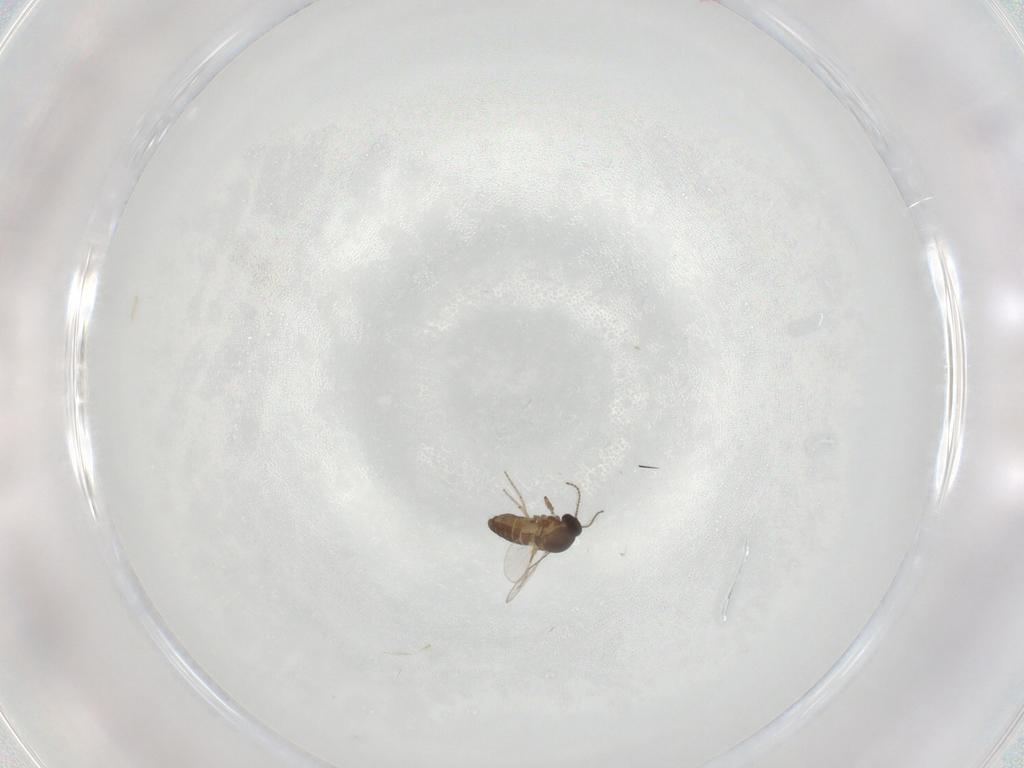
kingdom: Animalia
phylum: Arthropoda
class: Insecta
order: Diptera
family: Ceratopogonidae
